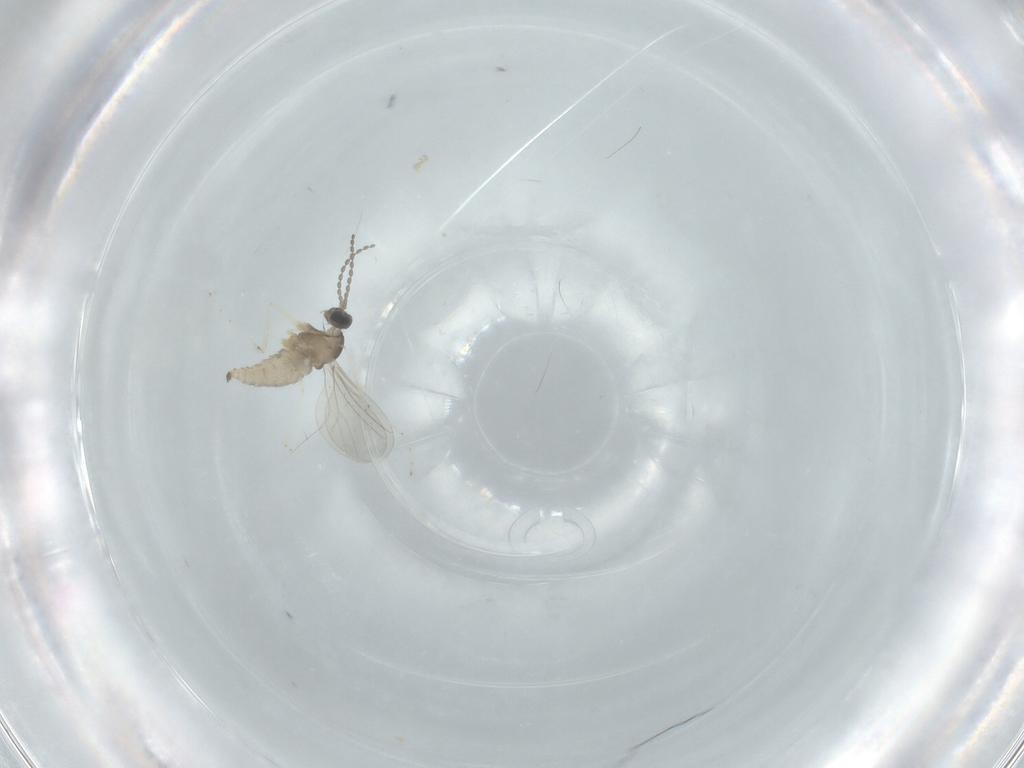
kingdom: Animalia
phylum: Arthropoda
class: Insecta
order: Diptera
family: Cecidomyiidae
